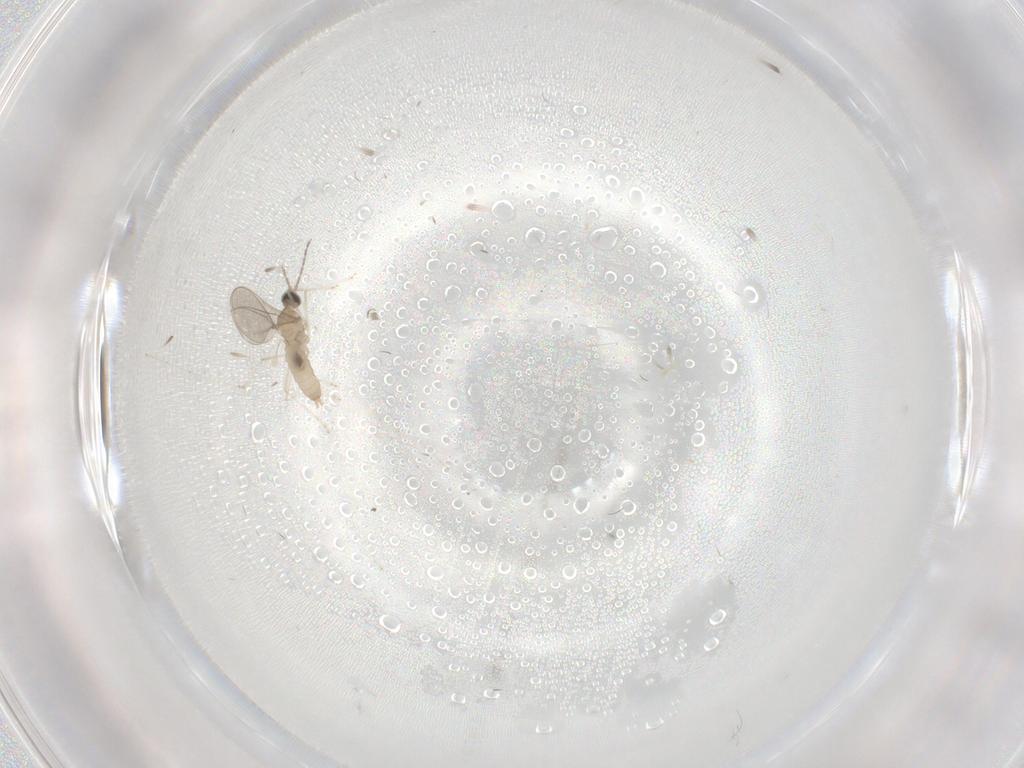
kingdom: Animalia
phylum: Arthropoda
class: Insecta
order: Diptera
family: Cecidomyiidae
